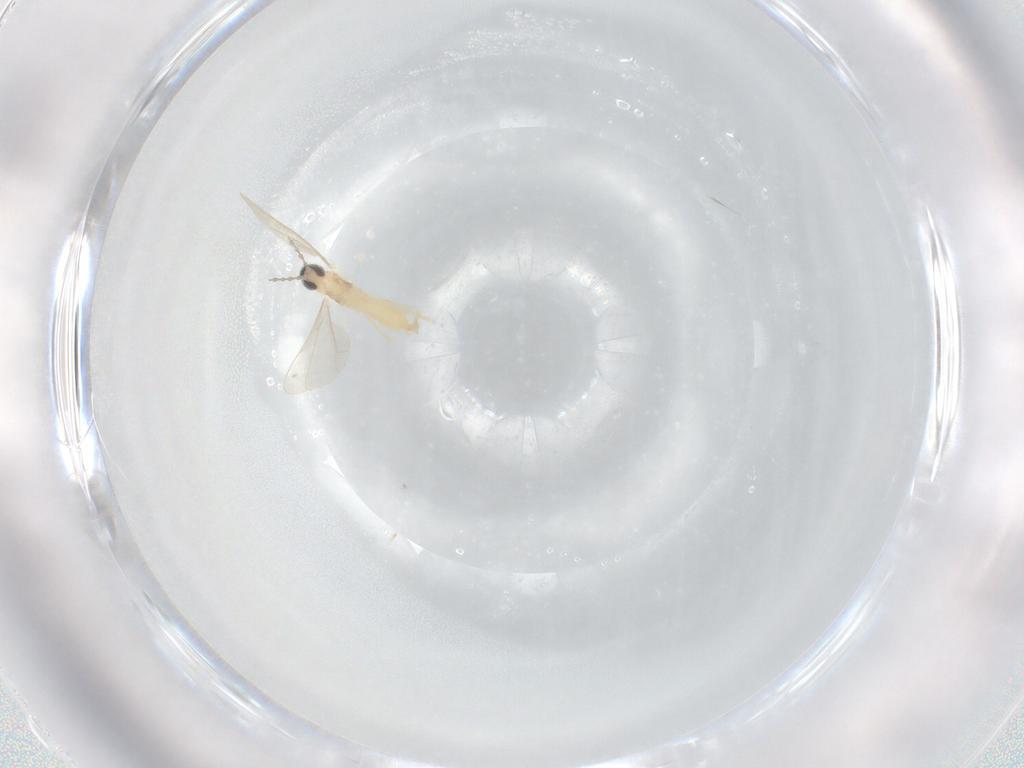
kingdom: Animalia
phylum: Arthropoda
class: Insecta
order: Diptera
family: Cecidomyiidae
